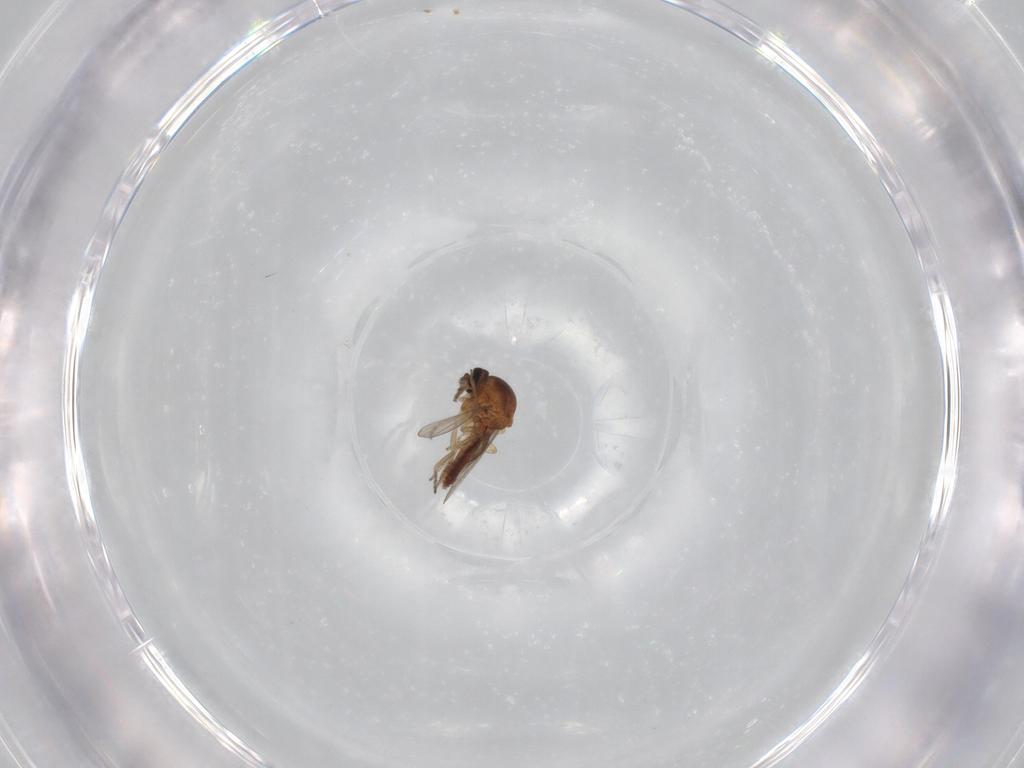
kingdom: Animalia
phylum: Arthropoda
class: Insecta
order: Diptera
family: Ceratopogonidae
